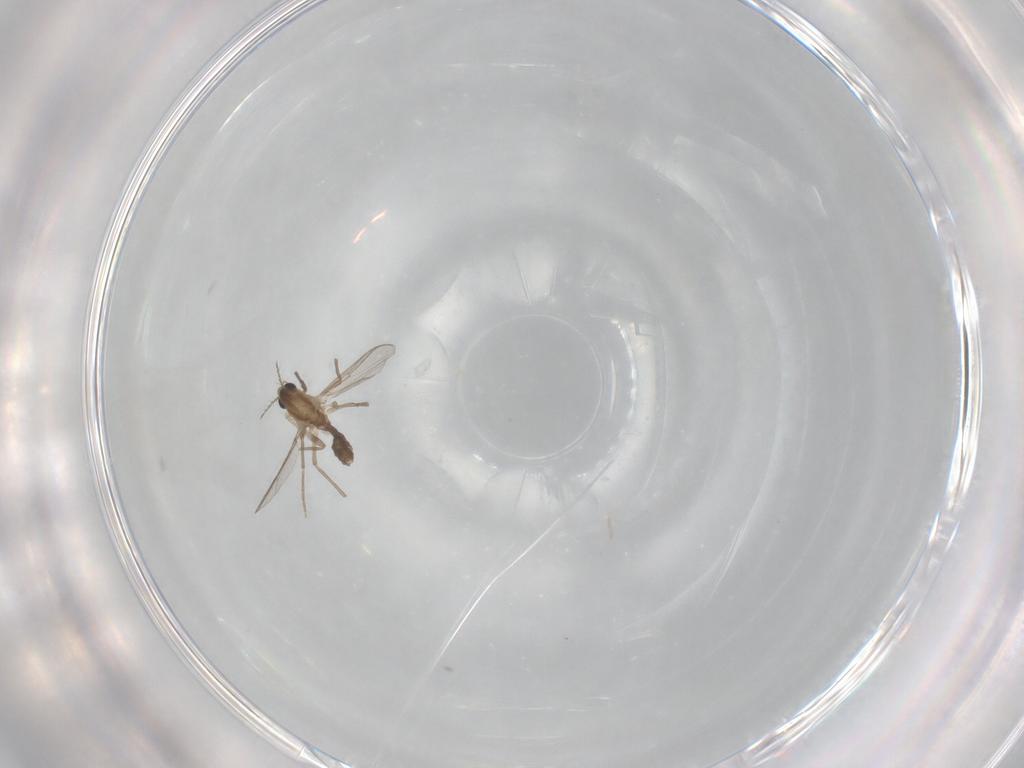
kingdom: Animalia
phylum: Arthropoda
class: Insecta
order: Diptera
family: Chironomidae
